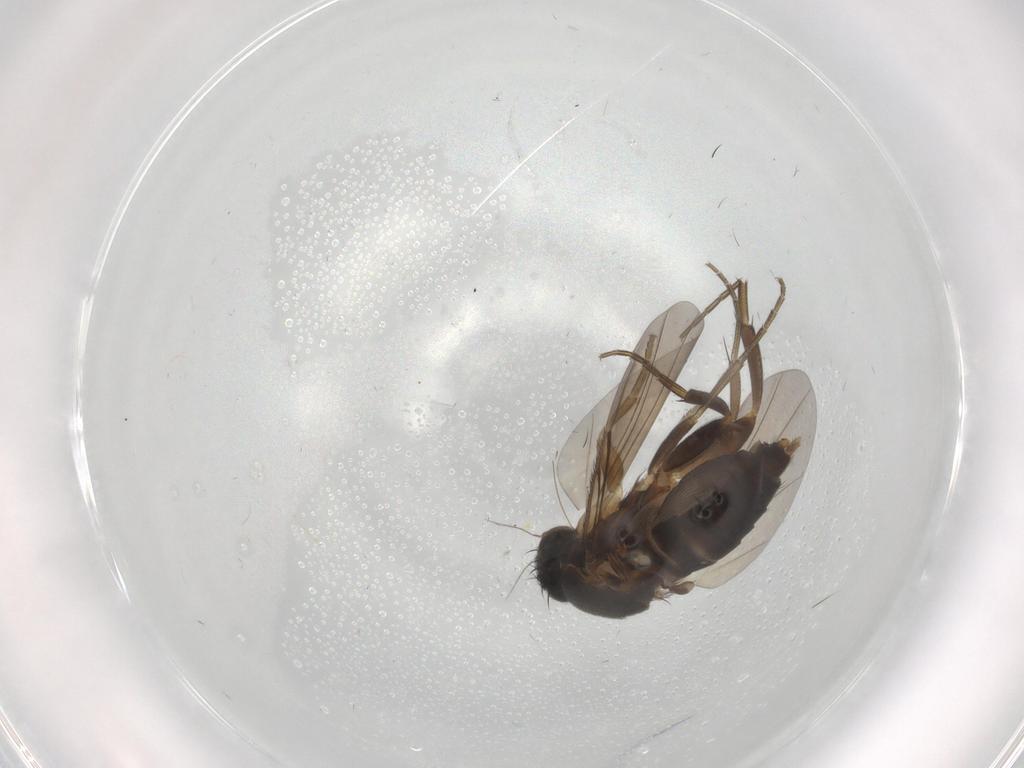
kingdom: Animalia
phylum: Arthropoda
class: Insecta
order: Diptera
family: Phoridae
